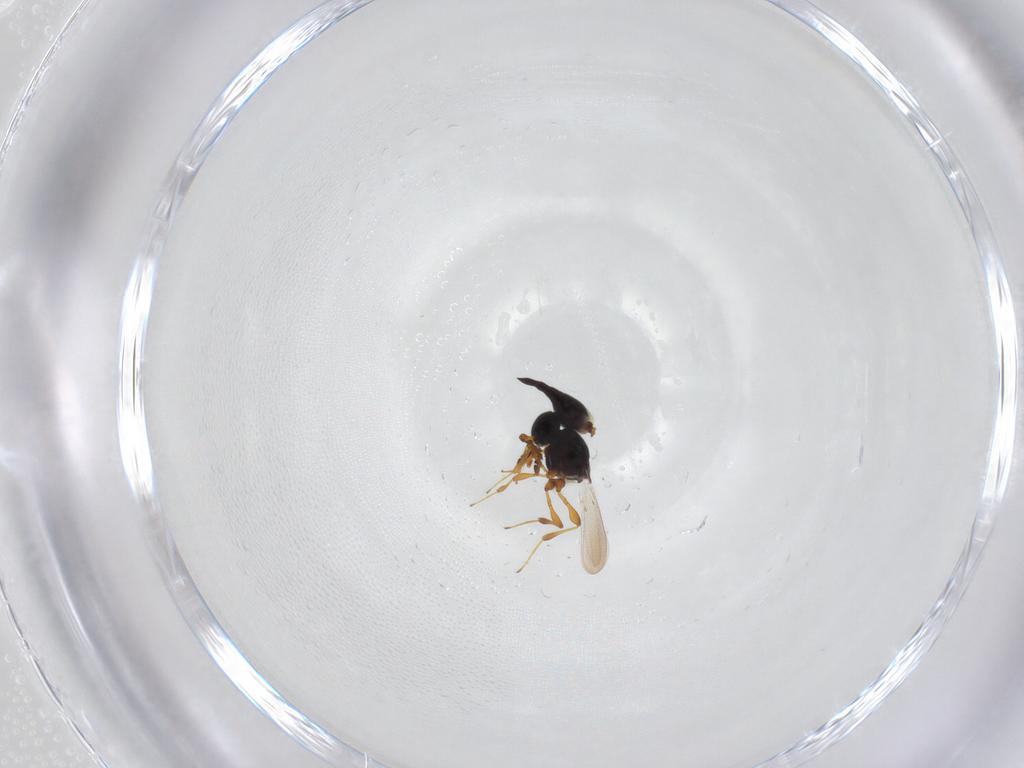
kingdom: Animalia
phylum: Arthropoda
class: Insecta
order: Hymenoptera
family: Platygastridae
